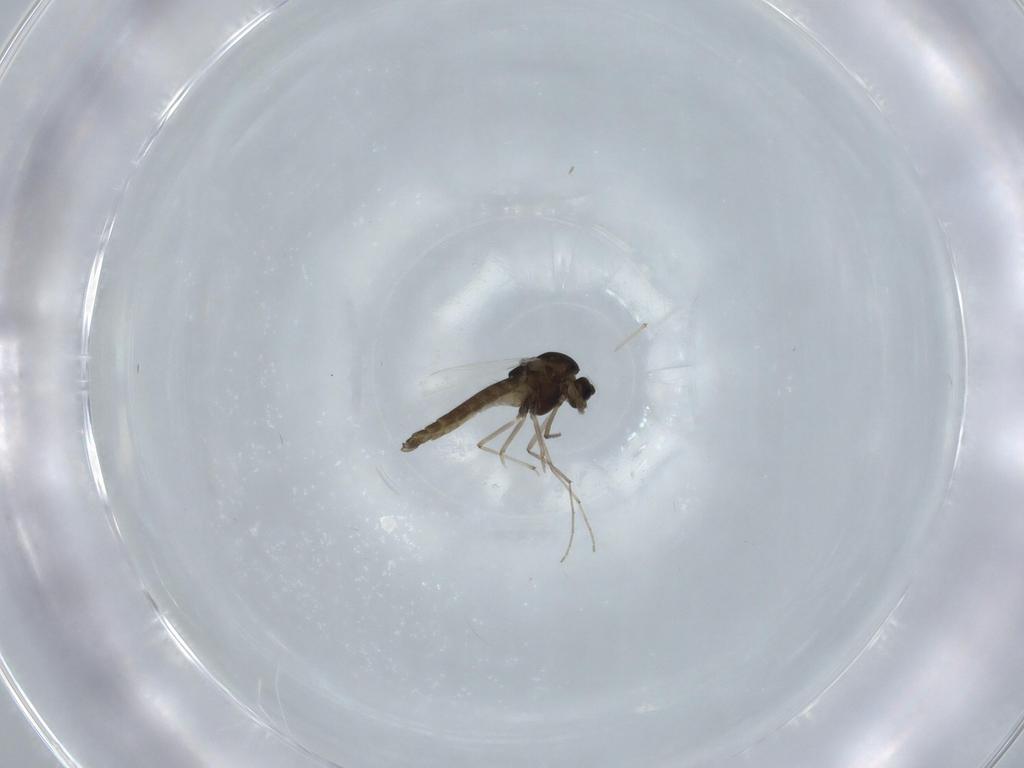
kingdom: Animalia
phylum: Arthropoda
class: Insecta
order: Diptera
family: Chironomidae
